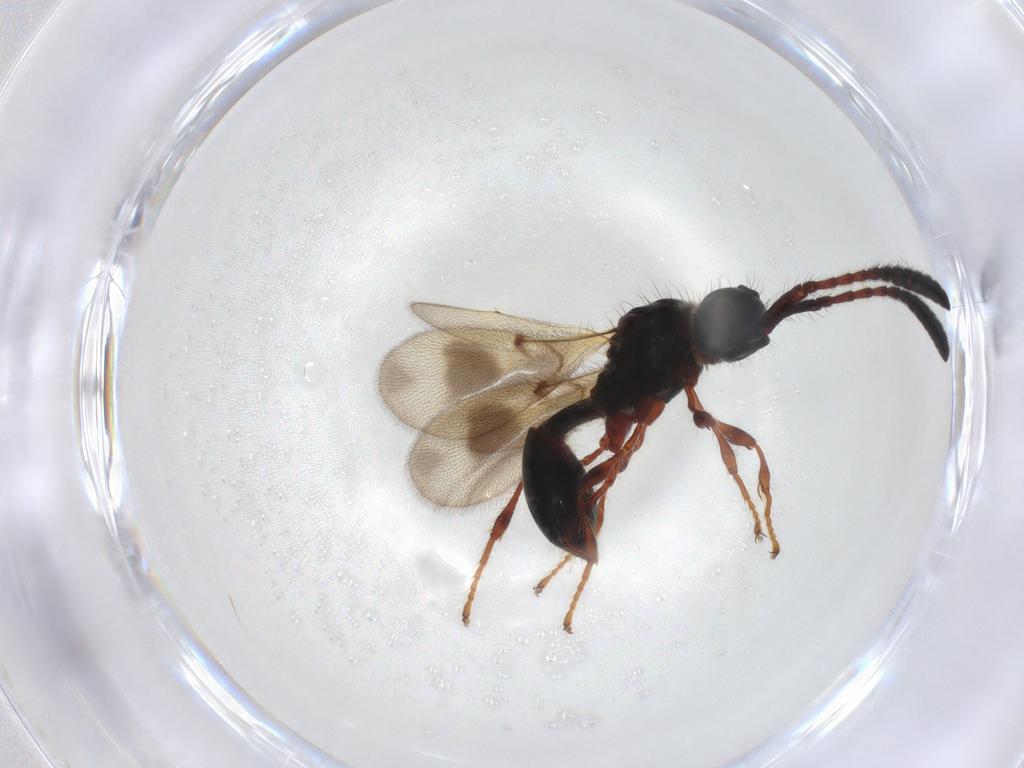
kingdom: Animalia
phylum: Arthropoda
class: Insecta
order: Hymenoptera
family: Diapriidae
